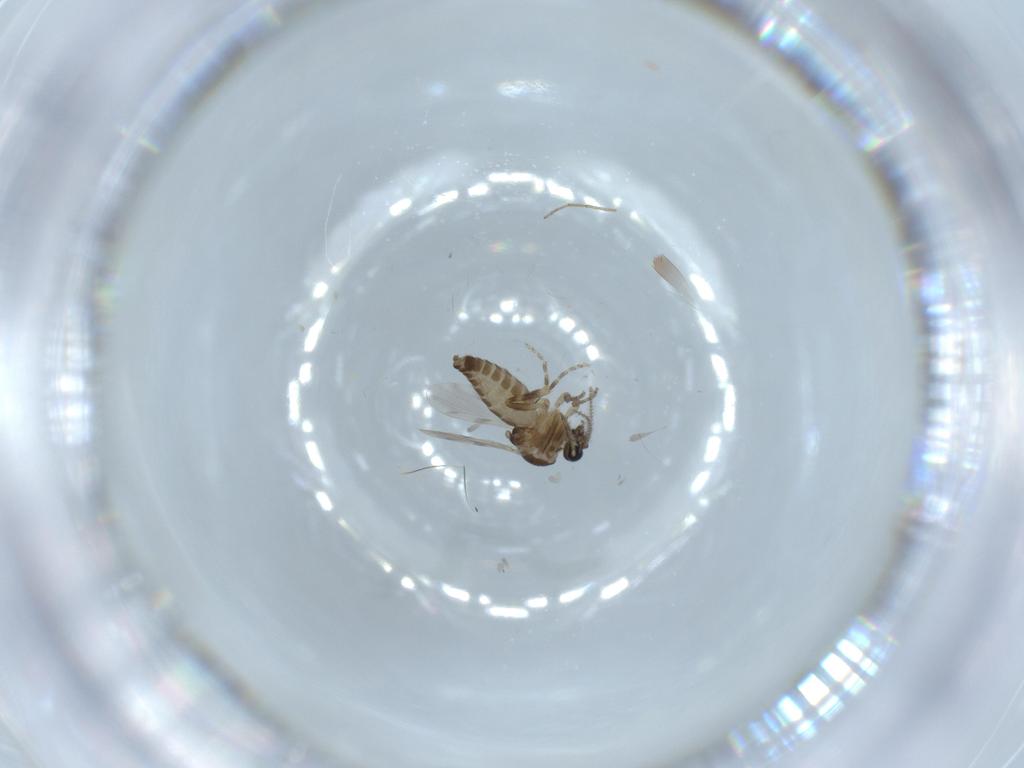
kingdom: Animalia
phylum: Arthropoda
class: Insecta
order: Diptera
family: Chironomidae
